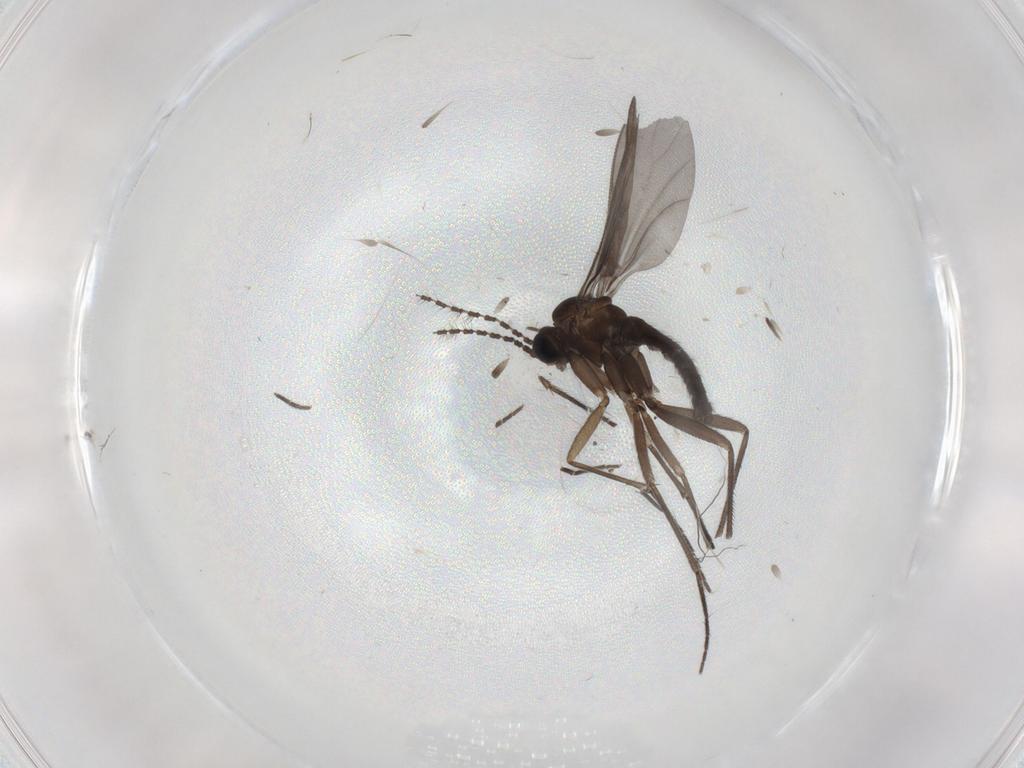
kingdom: Animalia
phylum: Arthropoda
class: Insecta
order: Diptera
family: Sciaridae
